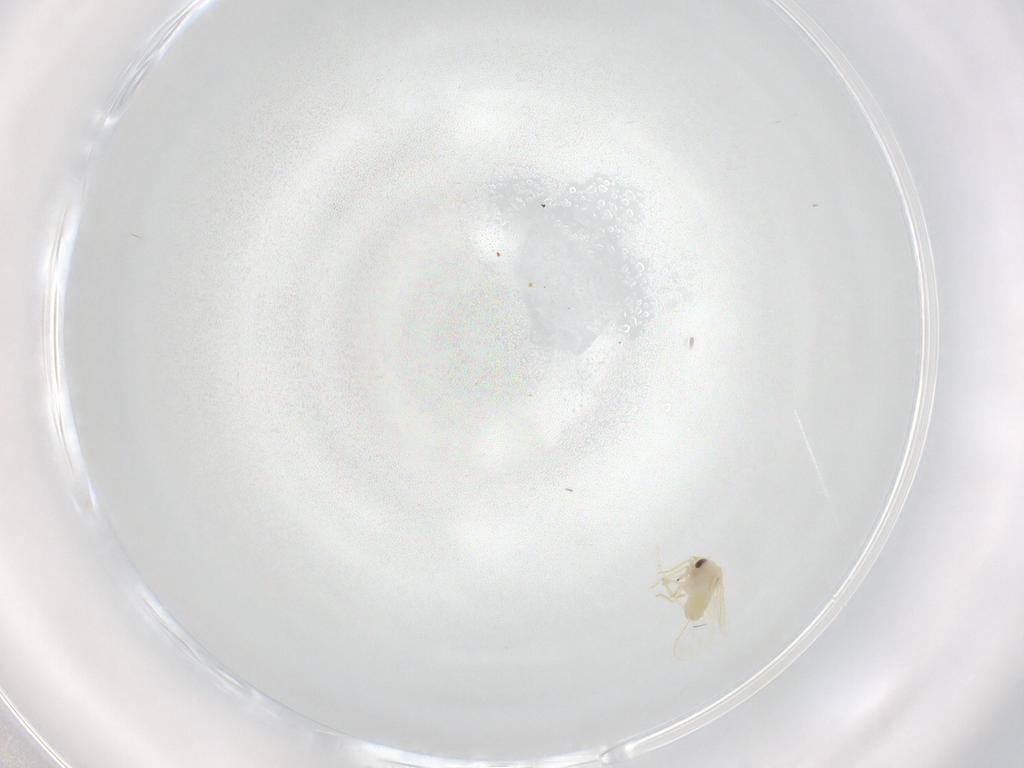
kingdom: Animalia
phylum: Arthropoda
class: Insecta
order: Hemiptera
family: Aleyrodidae
